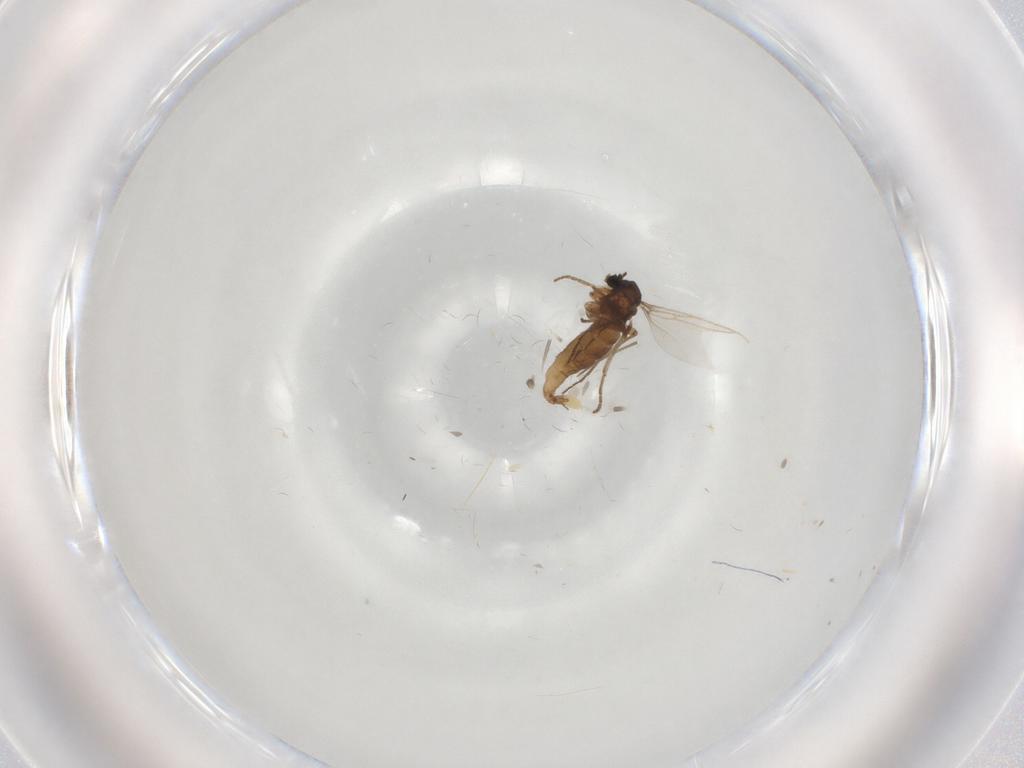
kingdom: Animalia
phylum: Arthropoda
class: Insecta
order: Diptera
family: Chironomidae
